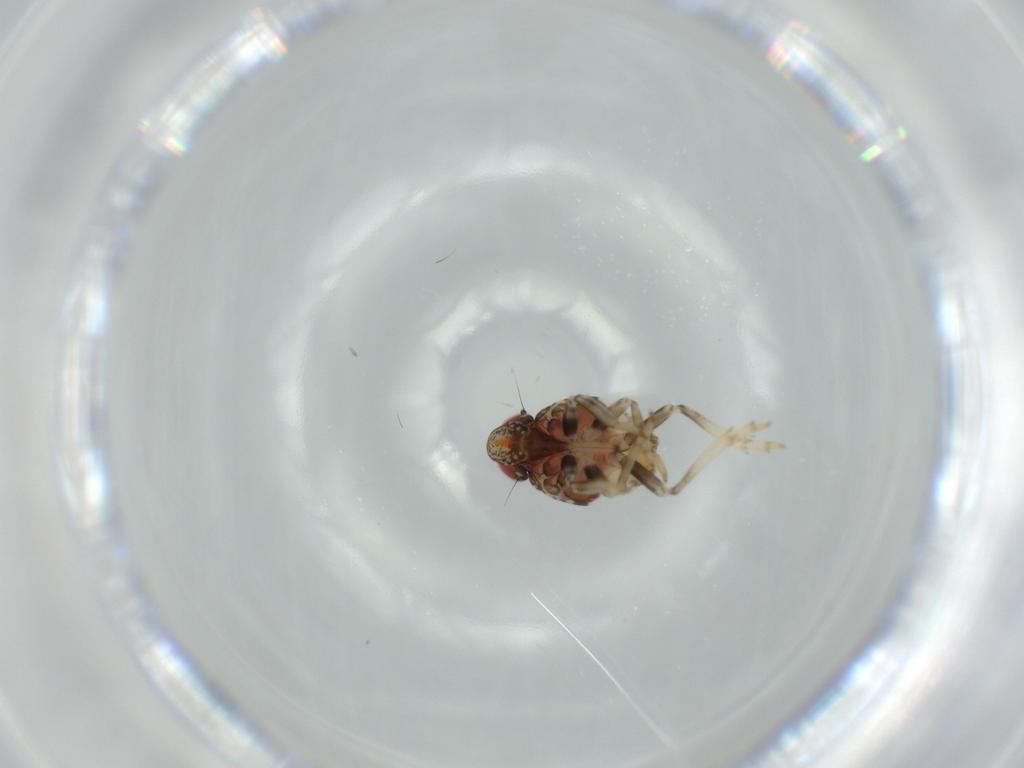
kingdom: Animalia
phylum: Arthropoda
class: Insecta
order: Hemiptera
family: Issidae
